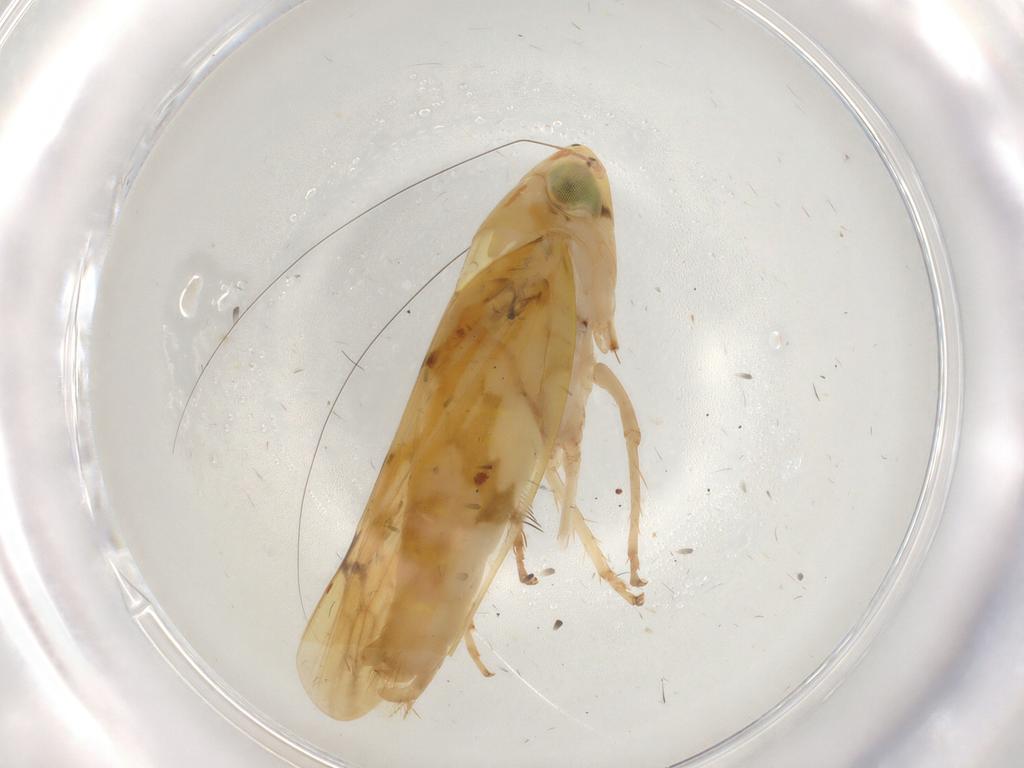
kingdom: Animalia
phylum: Arthropoda
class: Insecta
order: Hemiptera
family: Cicadellidae
